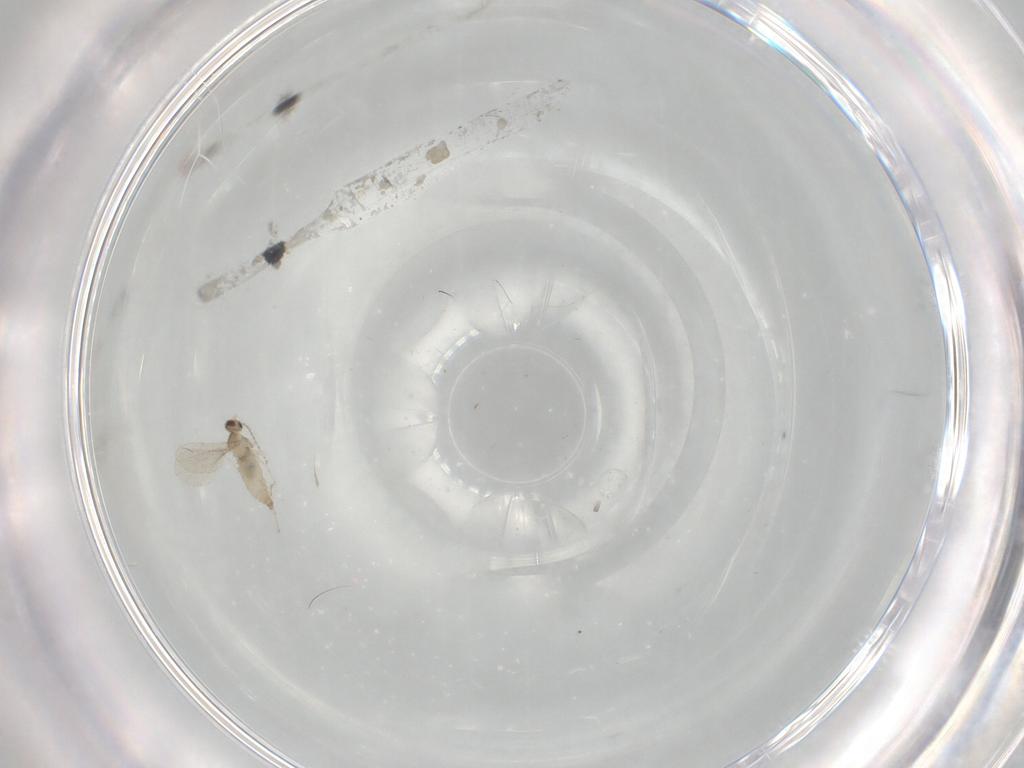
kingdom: Animalia
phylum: Arthropoda
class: Insecta
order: Diptera
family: Cecidomyiidae
